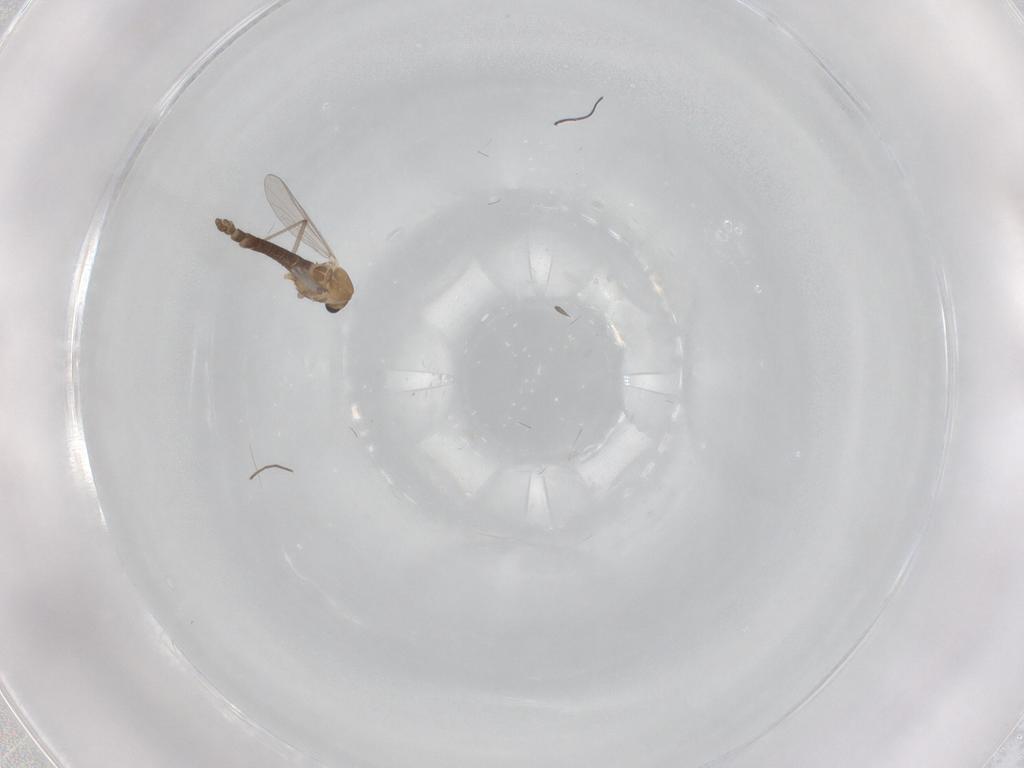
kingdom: Animalia
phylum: Arthropoda
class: Insecta
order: Diptera
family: Chironomidae
